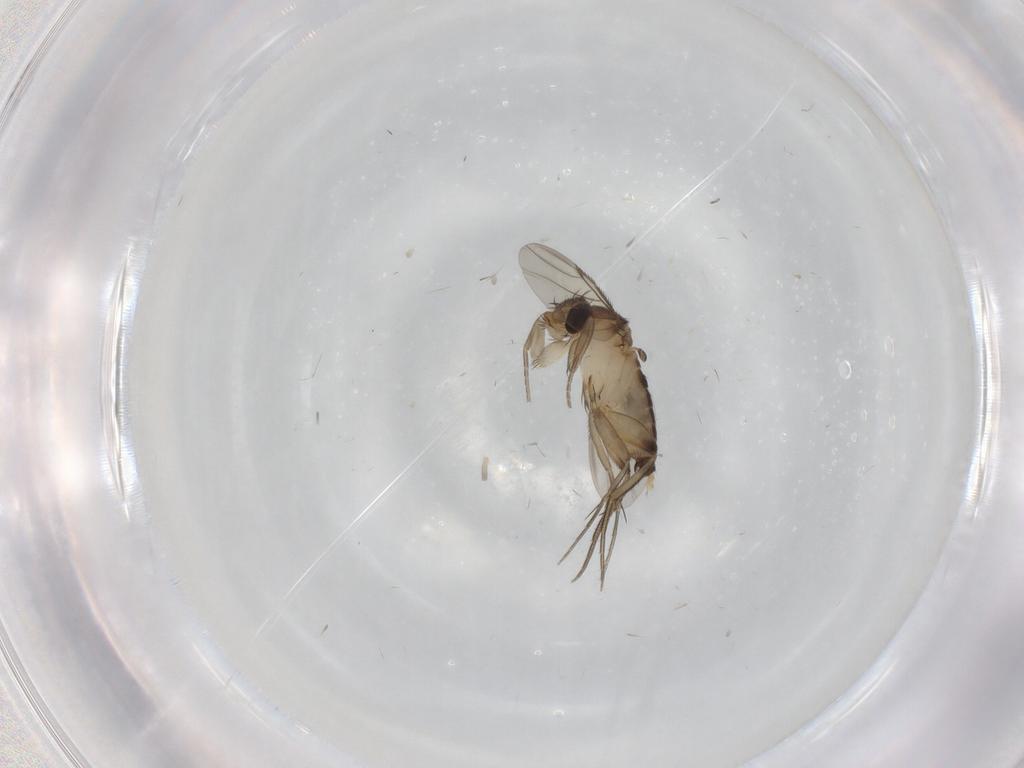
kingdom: Animalia
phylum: Arthropoda
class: Insecta
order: Diptera
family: Phoridae
